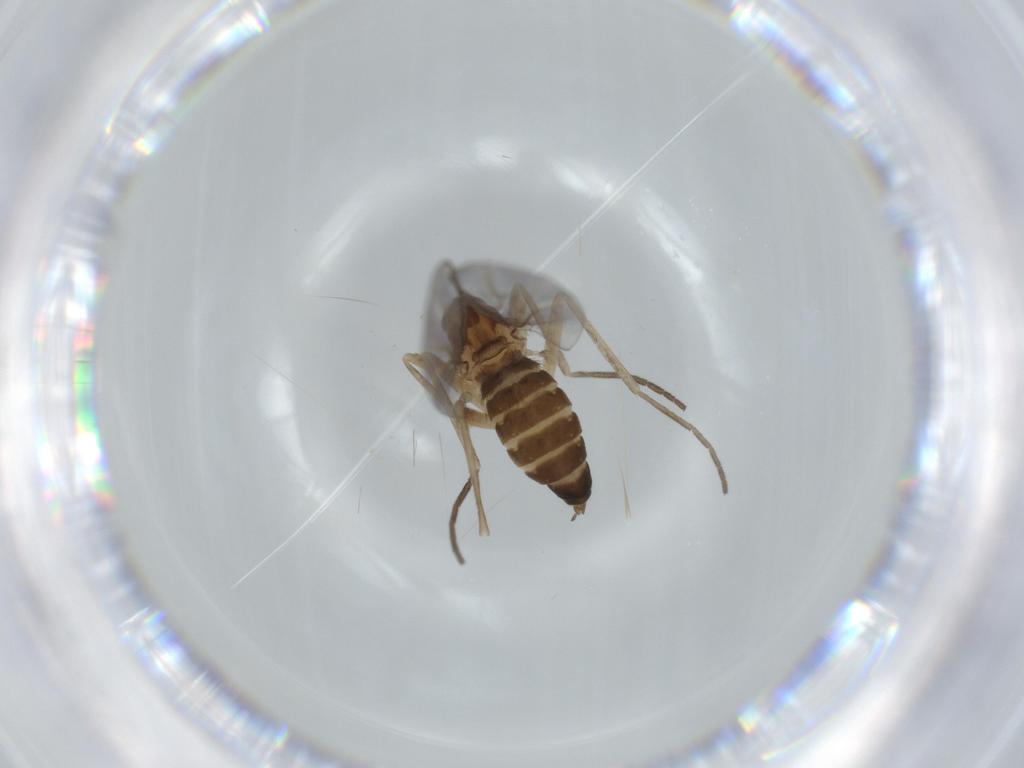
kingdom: Animalia
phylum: Arthropoda
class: Insecta
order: Diptera
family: Cecidomyiidae
